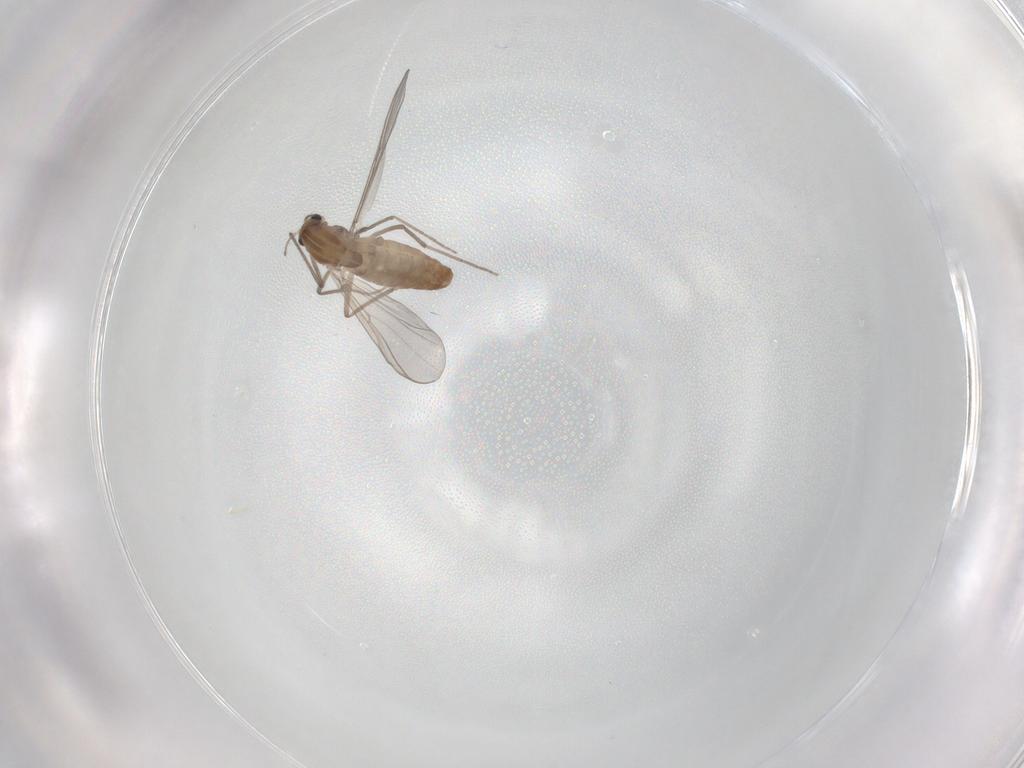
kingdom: Animalia
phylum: Arthropoda
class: Insecta
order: Diptera
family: Chironomidae
